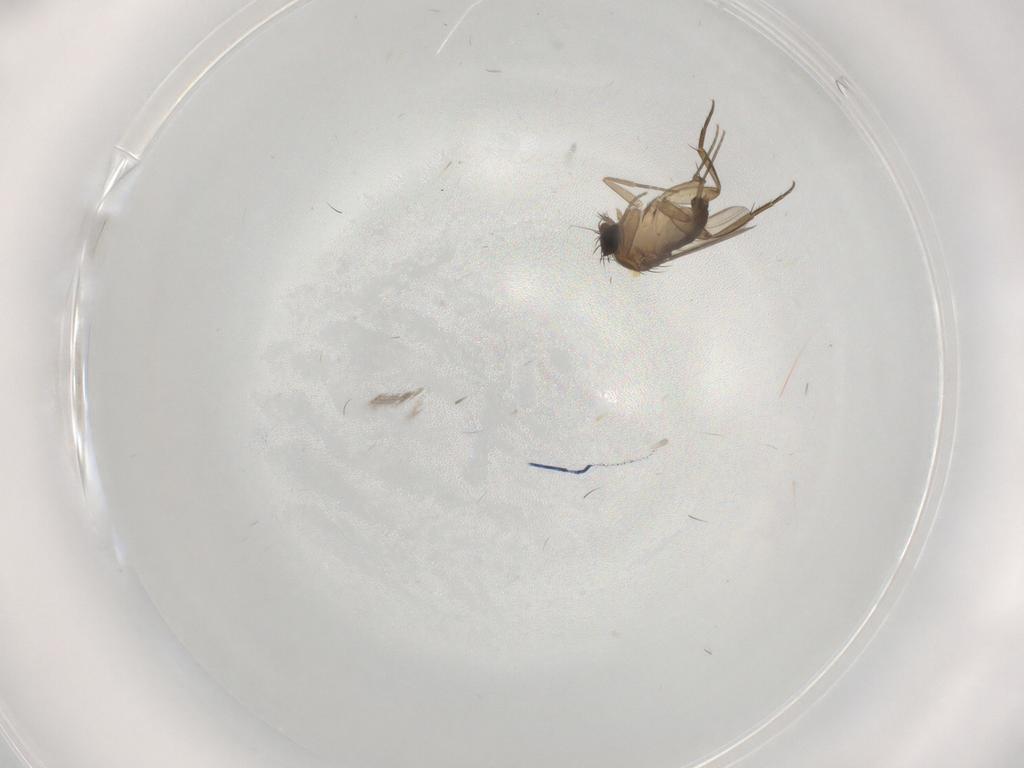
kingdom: Animalia
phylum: Arthropoda
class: Insecta
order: Diptera
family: Phoridae
